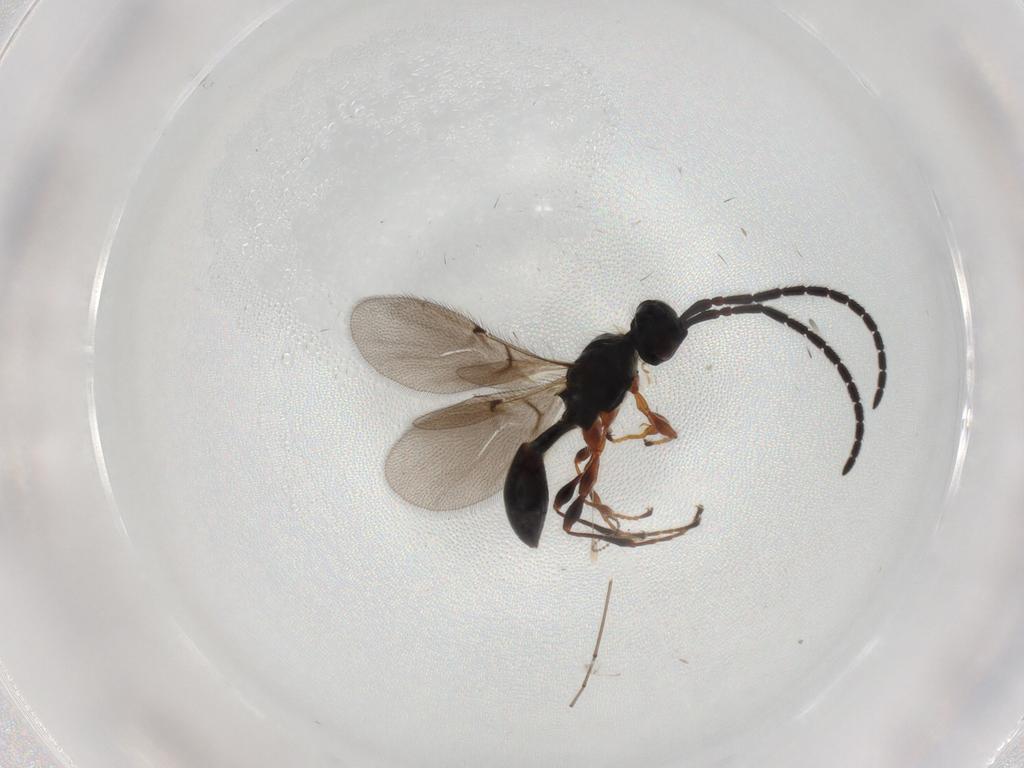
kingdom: Animalia
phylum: Arthropoda
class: Insecta
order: Hymenoptera
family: Diapriidae
